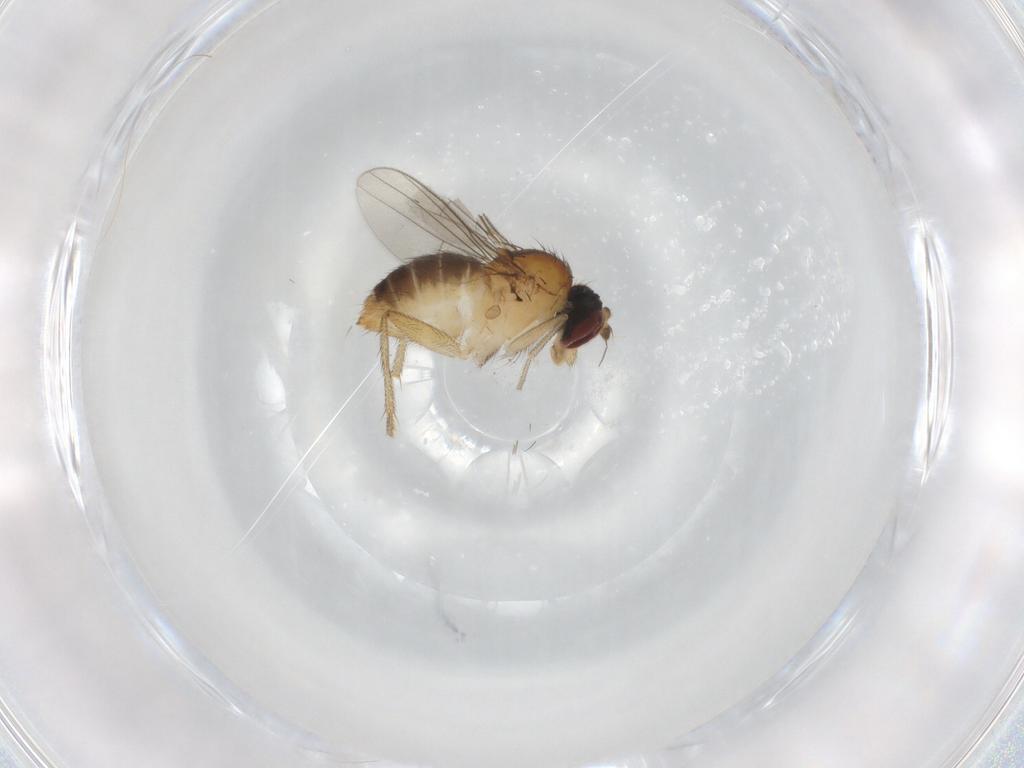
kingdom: Animalia
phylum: Arthropoda
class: Insecta
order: Diptera
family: Dolichopodidae
